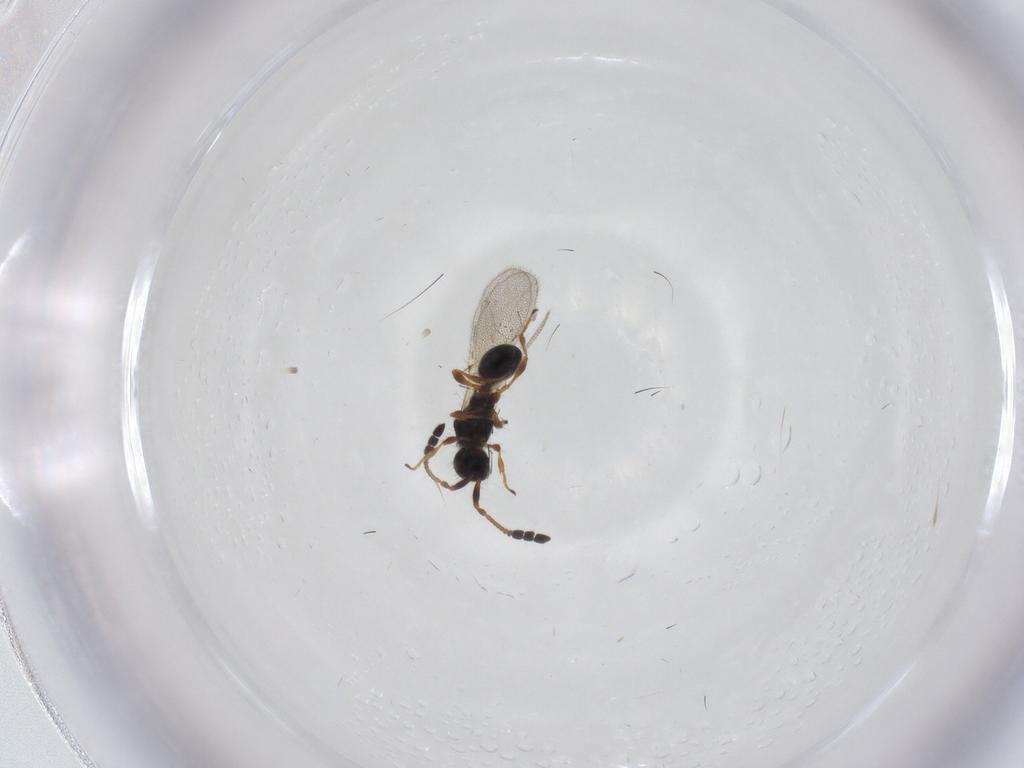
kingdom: Animalia
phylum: Arthropoda
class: Insecta
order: Hymenoptera
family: Diapriidae
